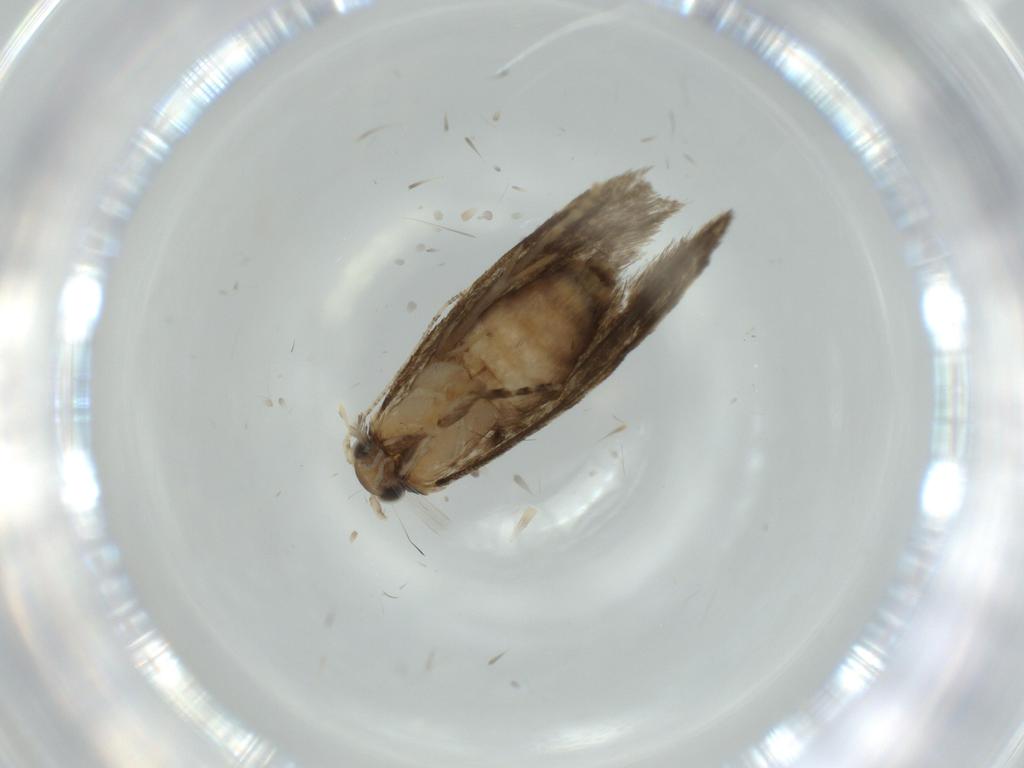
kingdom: Animalia
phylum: Arthropoda
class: Insecta
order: Lepidoptera
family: Tineidae
